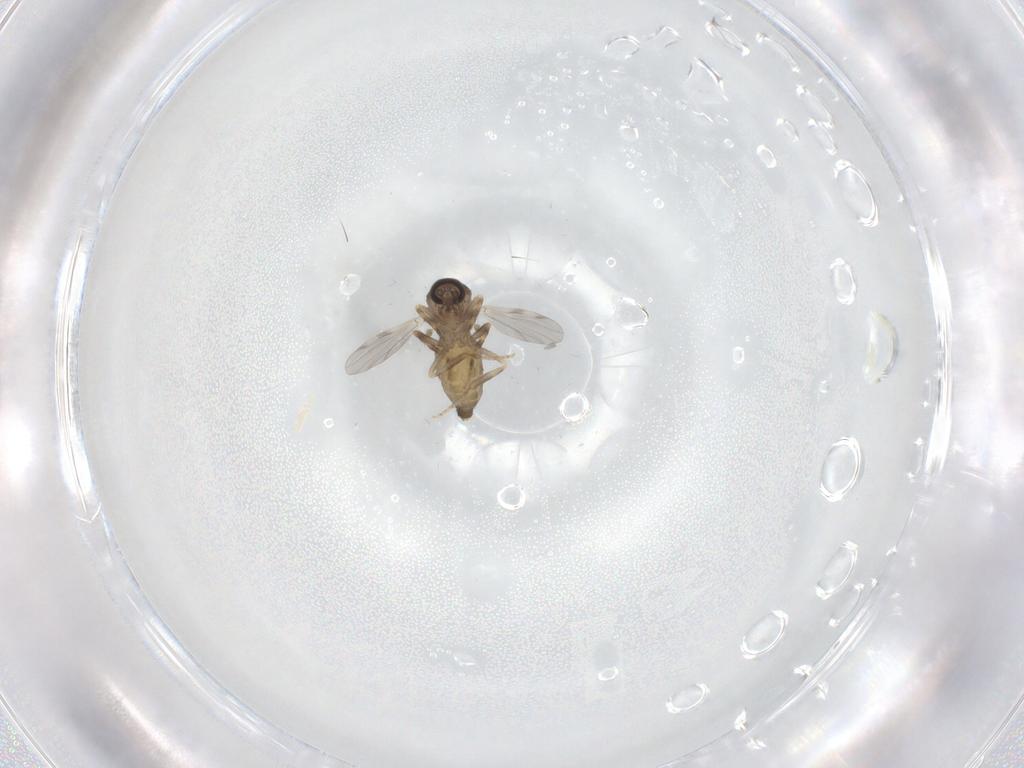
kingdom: Animalia
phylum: Arthropoda
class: Insecta
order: Diptera
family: Ceratopogonidae
